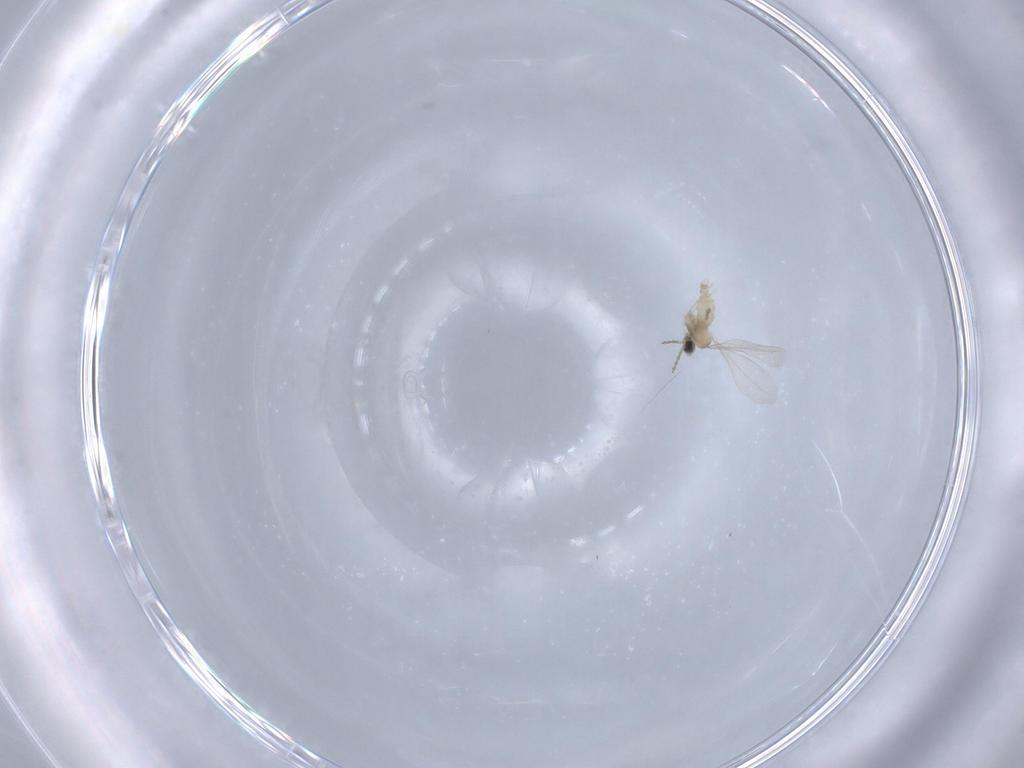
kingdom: Animalia
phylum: Arthropoda
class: Insecta
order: Diptera
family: Cecidomyiidae
